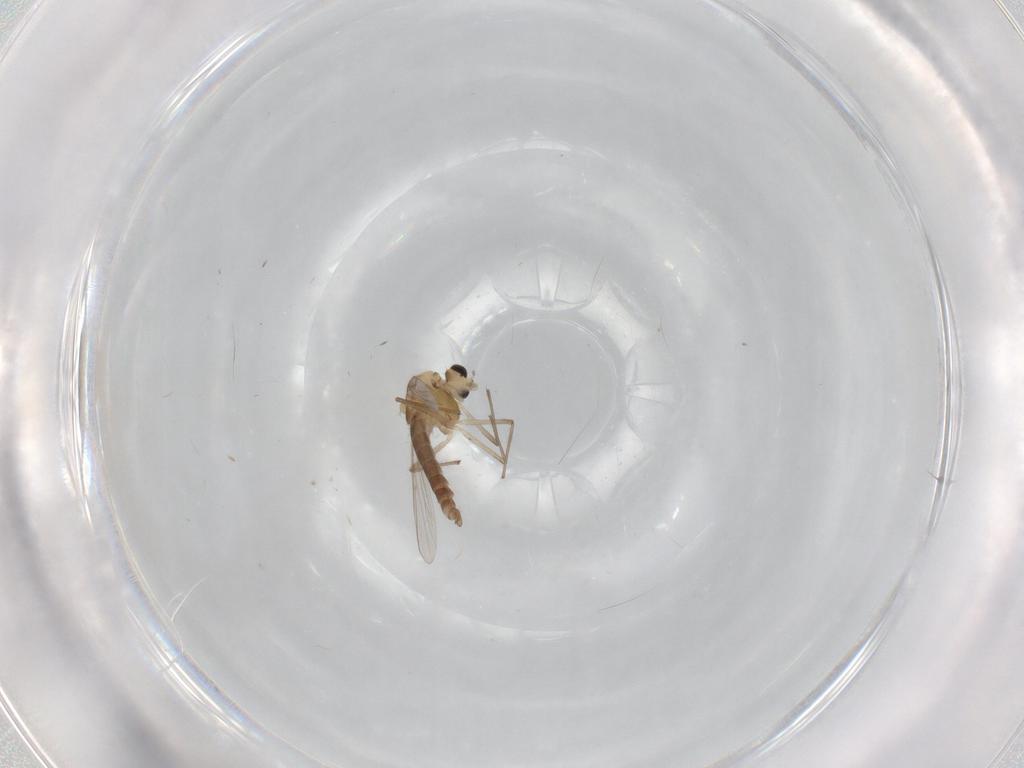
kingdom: Animalia
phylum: Arthropoda
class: Insecta
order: Diptera
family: Chironomidae
